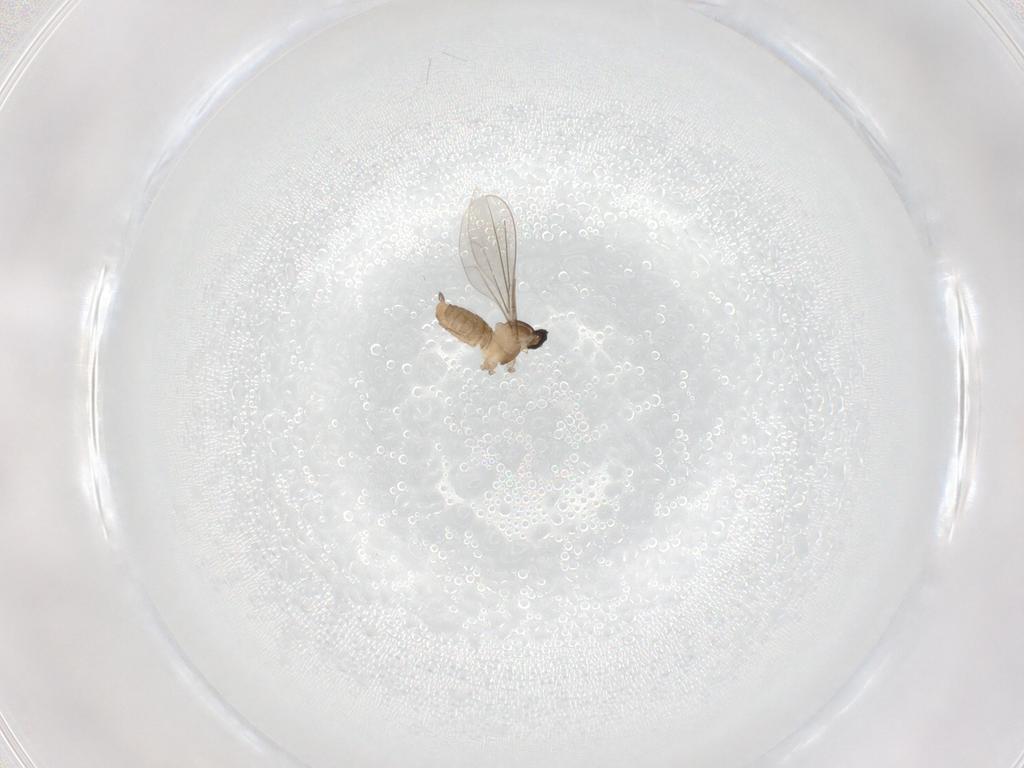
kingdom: Animalia
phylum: Arthropoda
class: Insecta
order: Diptera
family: Cecidomyiidae
